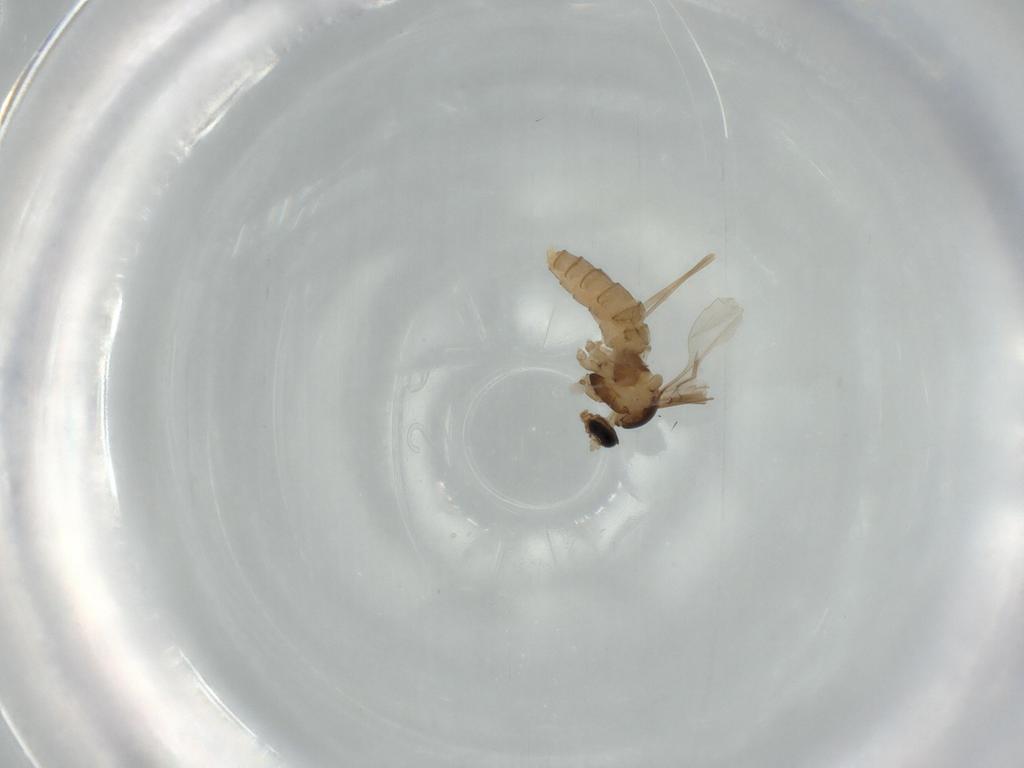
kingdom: Animalia
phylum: Arthropoda
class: Insecta
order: Diptera
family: Cecidomyiidae
